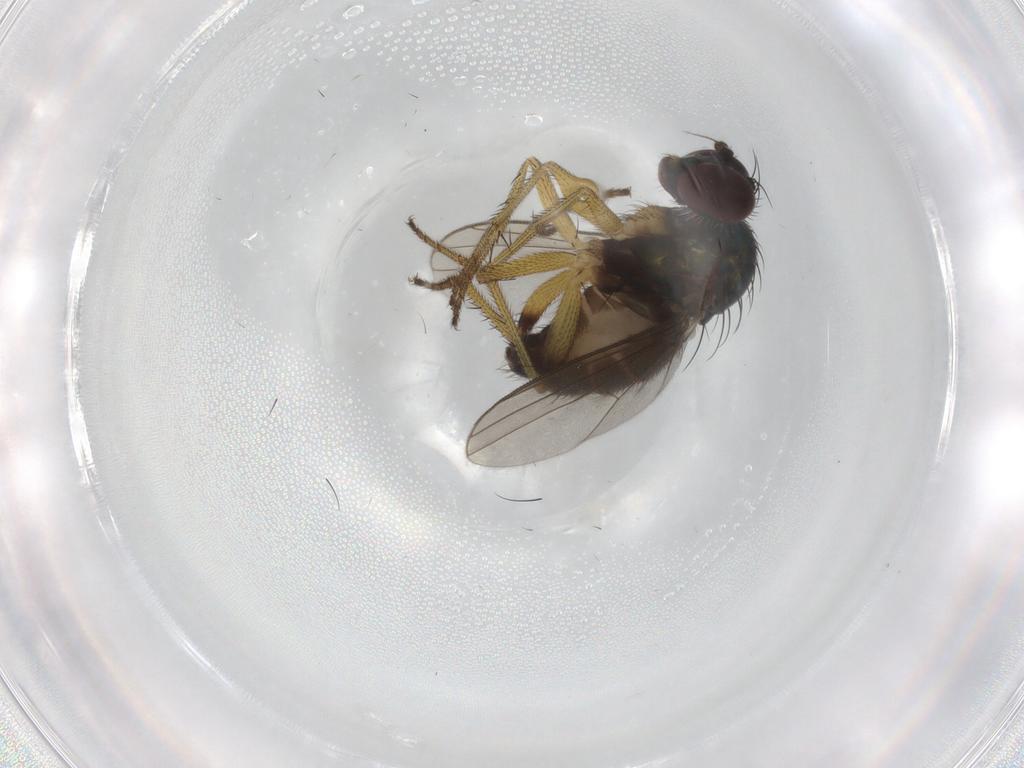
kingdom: Animalia
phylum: Arthropoda
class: Insecta
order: Diptera
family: Dolichopodidae
